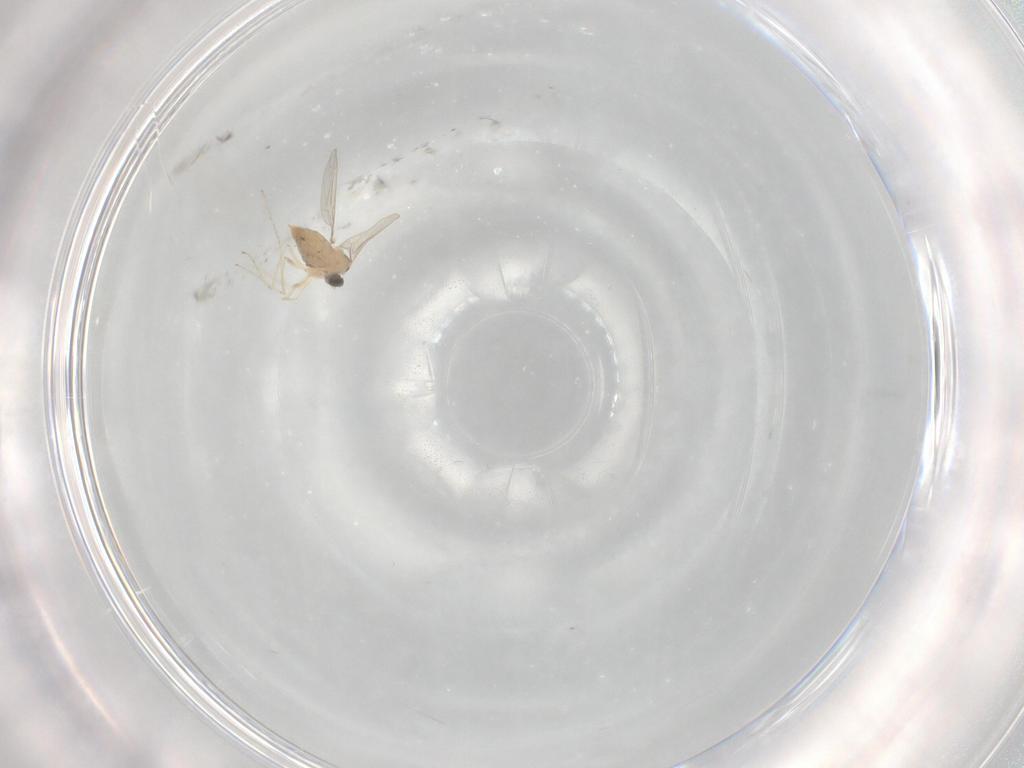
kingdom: Animalia
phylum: Arthropoda
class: Insecta
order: Diptera
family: Cecidomyiidae
